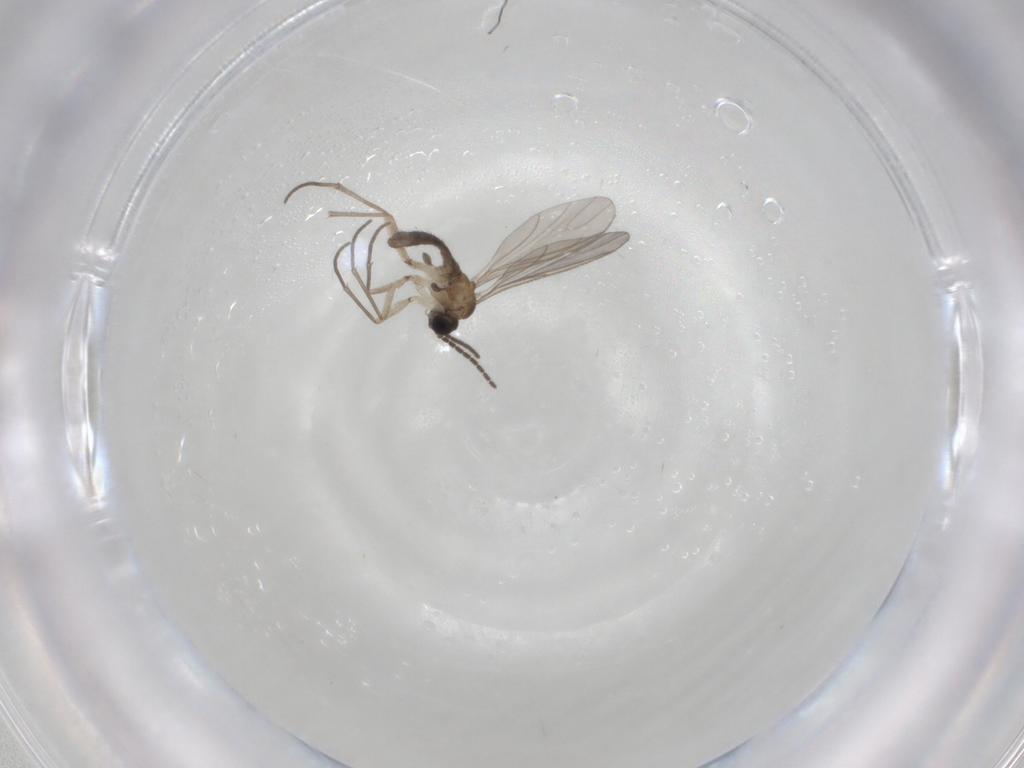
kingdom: Animalia
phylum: Arthropoda
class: Insecta
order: Diptera
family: Sciaridae
